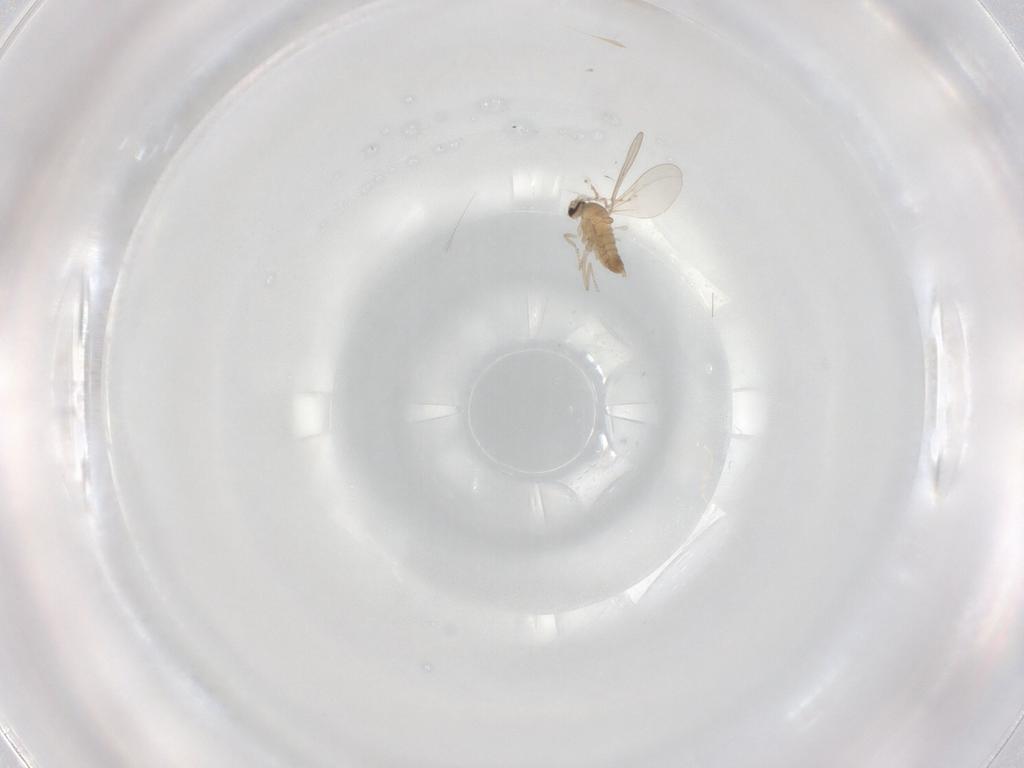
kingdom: Animalia
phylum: Arthropoda
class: Insecta
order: Diptera
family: Cecidomyiidae
